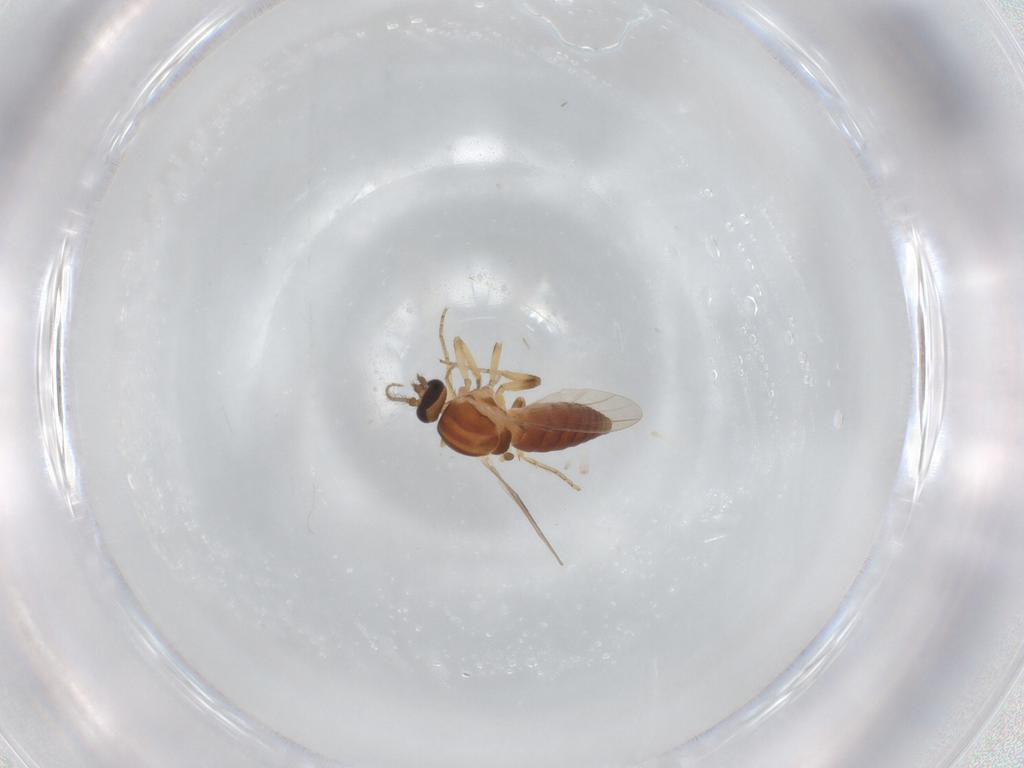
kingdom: Animalia
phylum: Arthropoda
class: Insecta
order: Diptera
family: Ceratopogonidae
